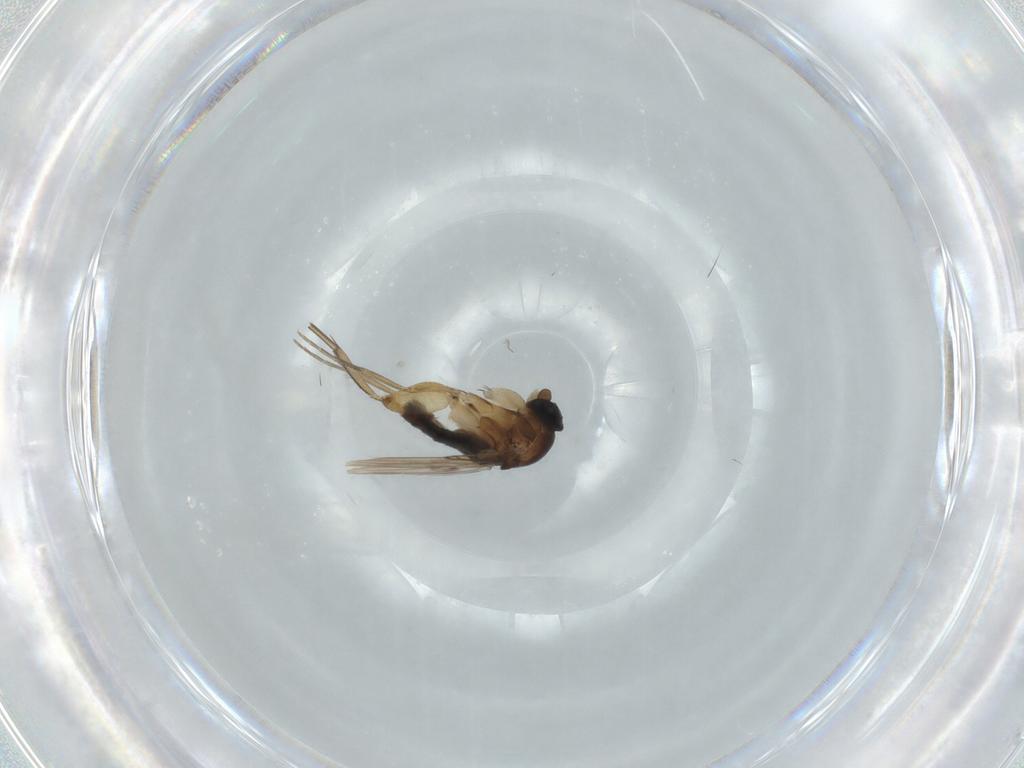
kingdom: Animalia
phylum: Arthropoda
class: Insecta
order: Diptera
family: Phoridae
